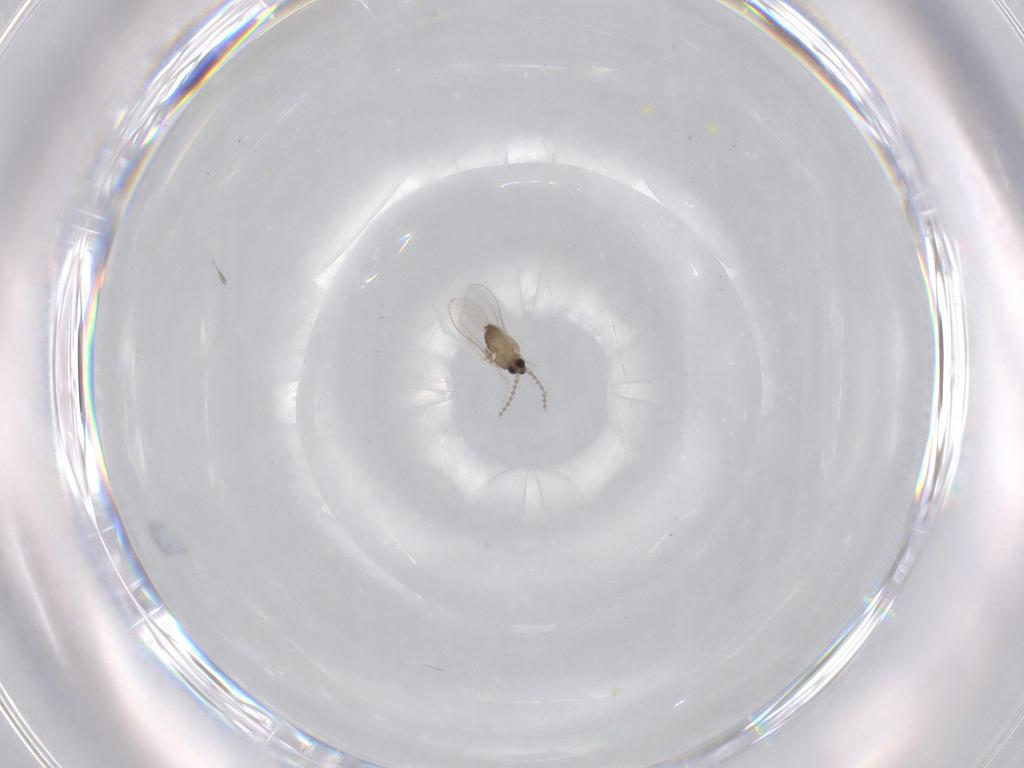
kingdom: Animalia
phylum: Arthropoda
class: Insecta
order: Diptera
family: Cecidomyiidae
